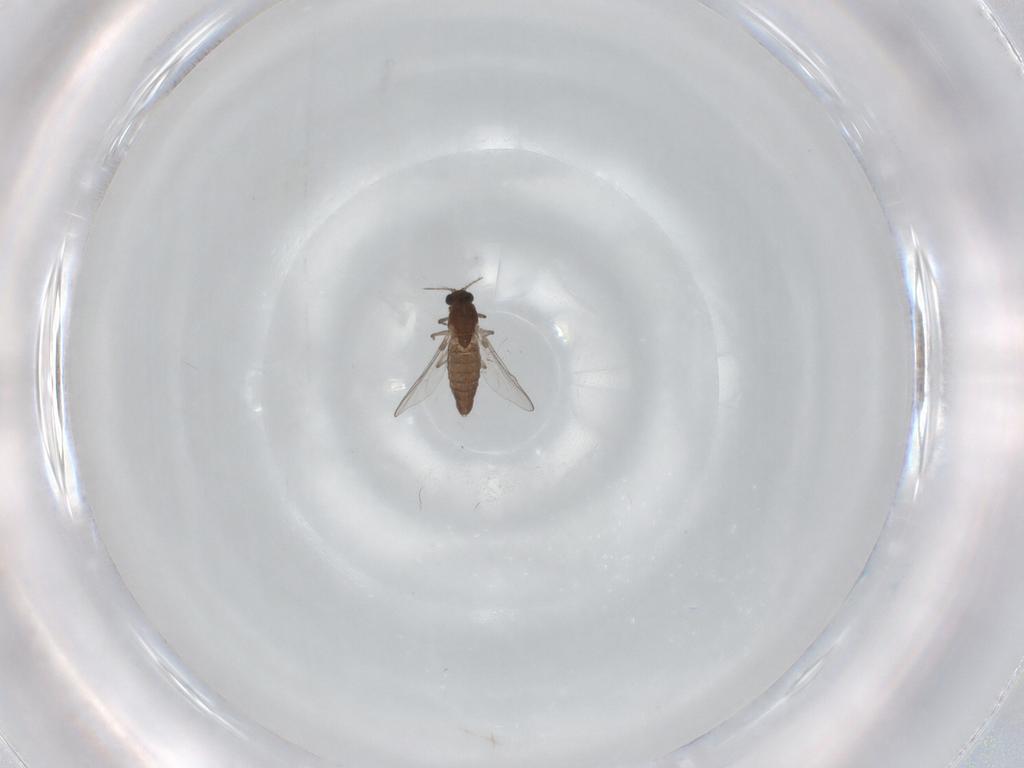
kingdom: Animalia
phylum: Arthropoda
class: Insecta
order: Diptera
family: Chironomidae
